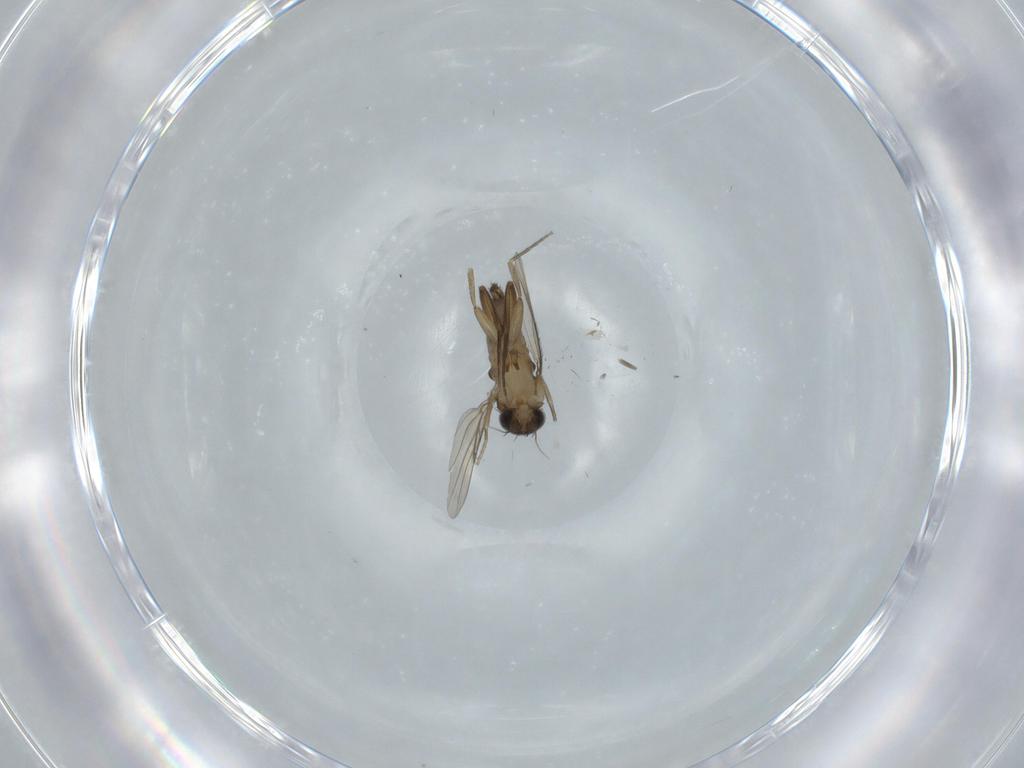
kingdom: Animalia
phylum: Arthropoda
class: Insecta
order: Diptera
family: Phoridae
